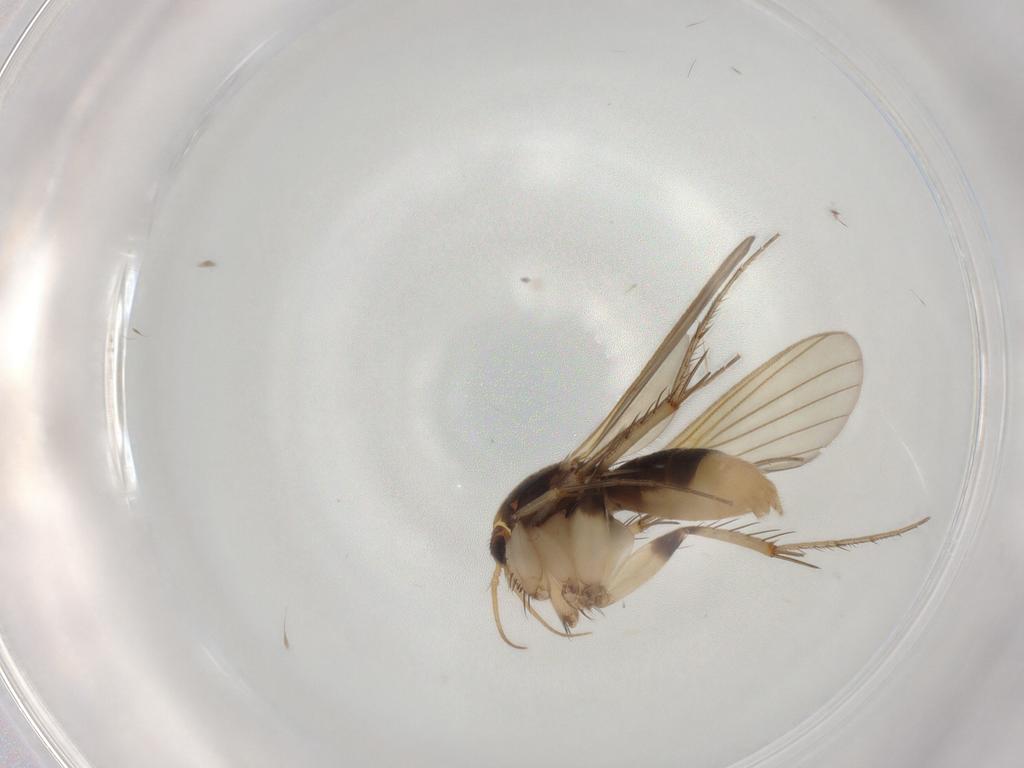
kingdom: Animalia
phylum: Arthropoda
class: Insecta
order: Diptera
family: Mycetophilidae
